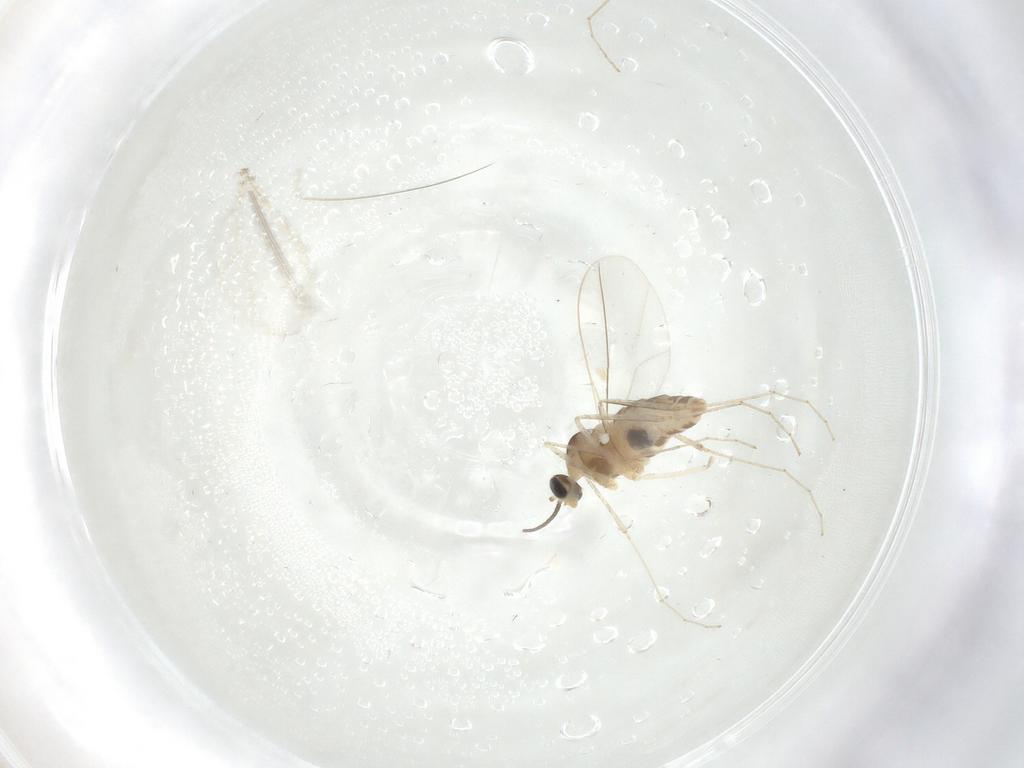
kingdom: Animalia
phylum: Arthropoda
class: Insecta
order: Diptera
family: Cecidomyiidae
